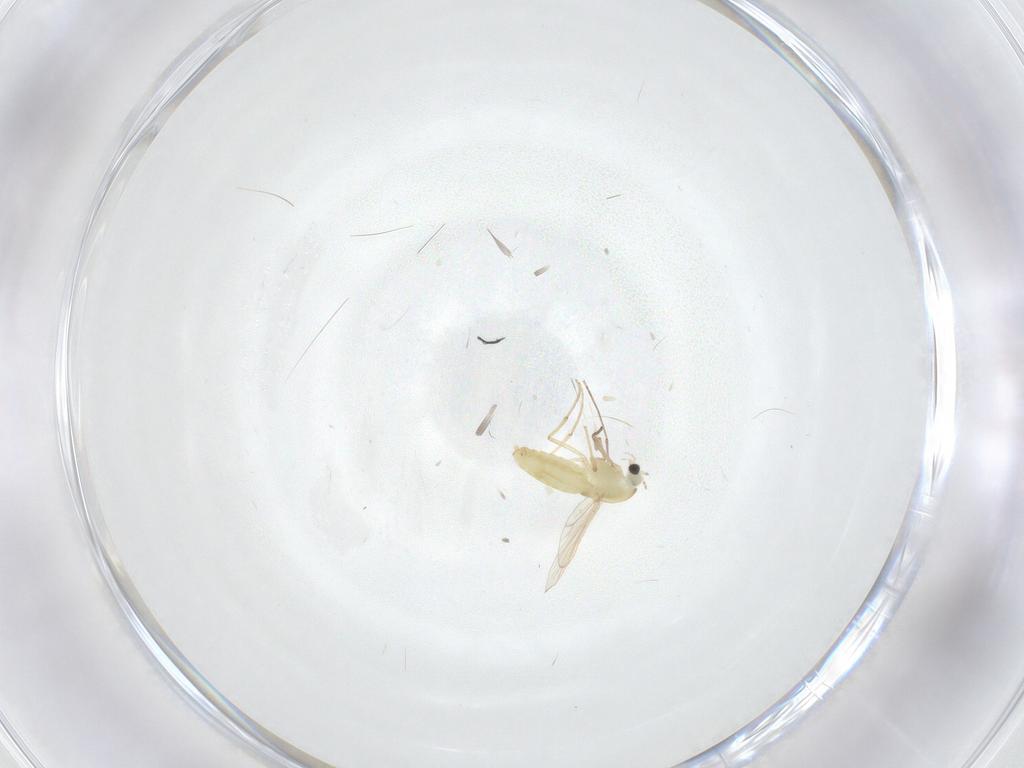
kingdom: Animalia
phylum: Arthropoda
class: Insecta
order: Diptera
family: Chironomidae
